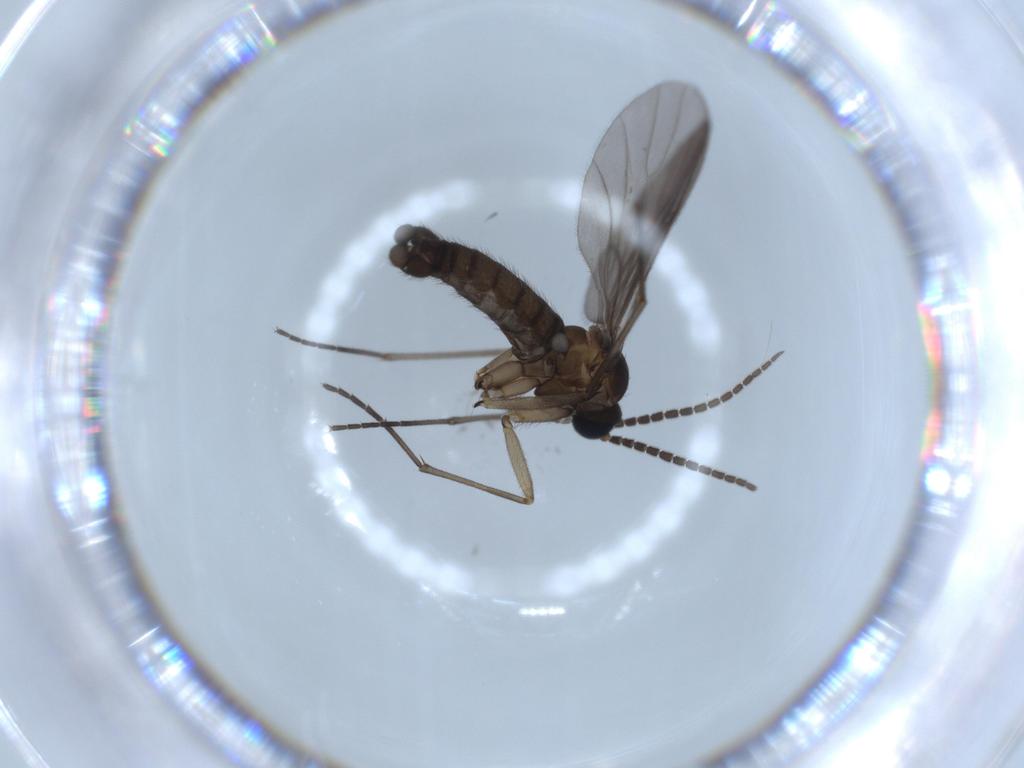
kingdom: Animalia
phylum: Arthropoda
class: Insecta
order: Diptera
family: Sciaridae
